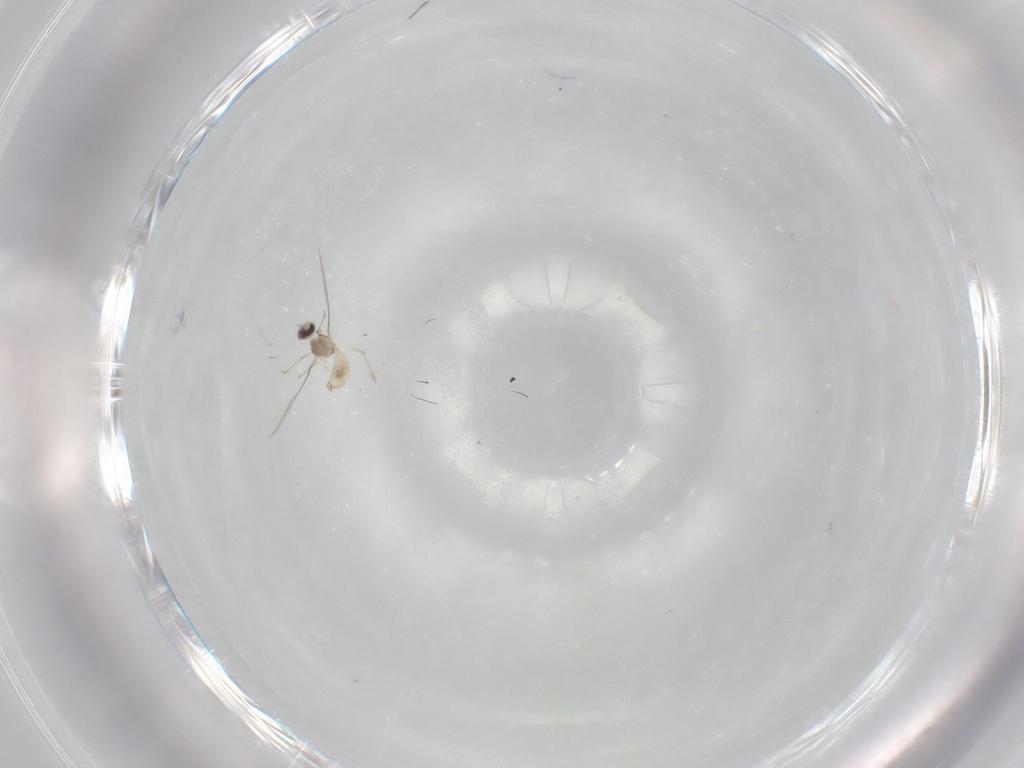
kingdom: Animalia
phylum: Arthropoda
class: Insecta
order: Diptera
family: Cecidomyiidae
